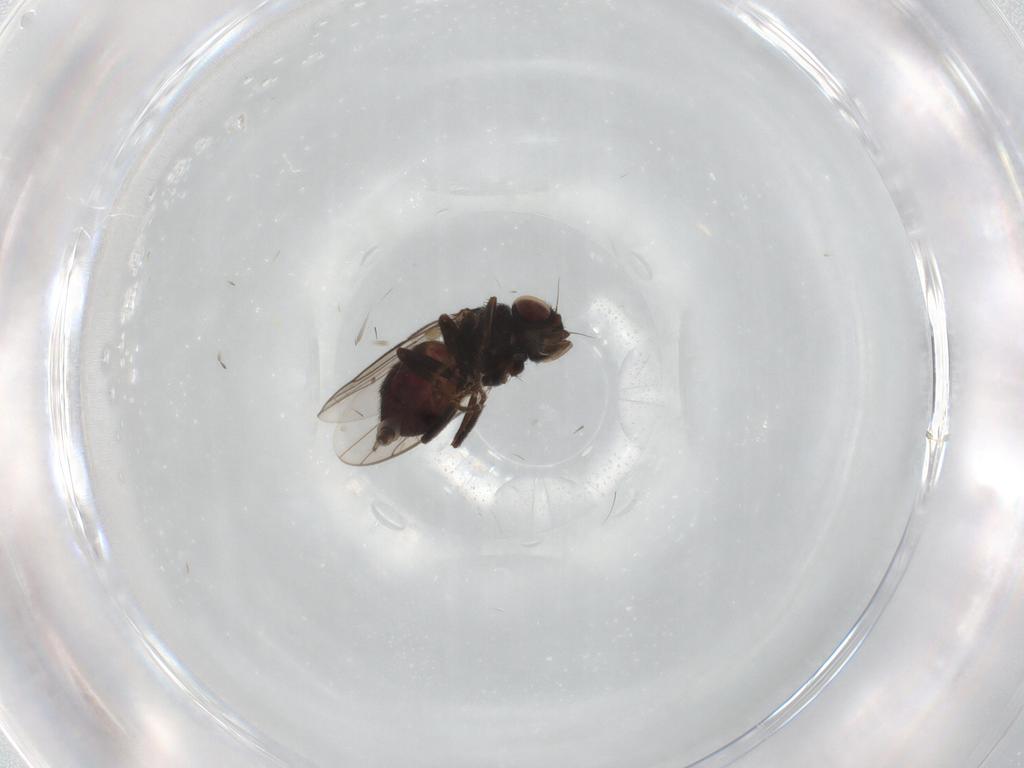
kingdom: Animalia
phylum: Arthropoda
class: Insecta
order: Diptera
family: Chloropidae
